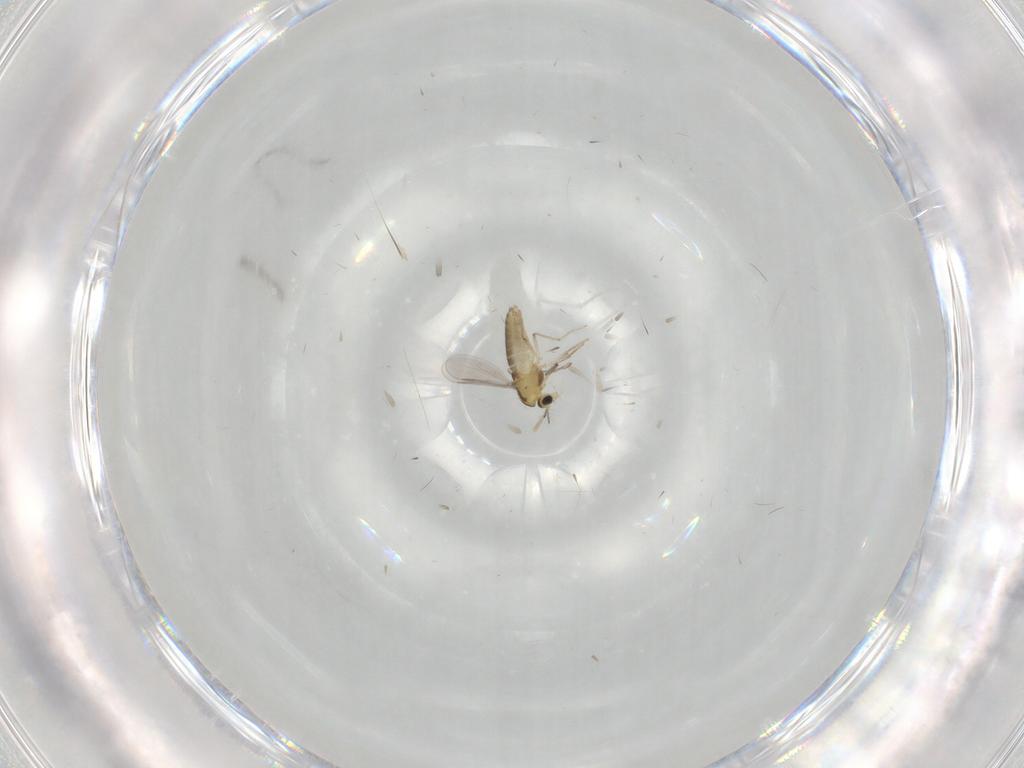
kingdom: Animalia
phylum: Arthropoda
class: Insecta
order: Diptera
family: Chironomidae
